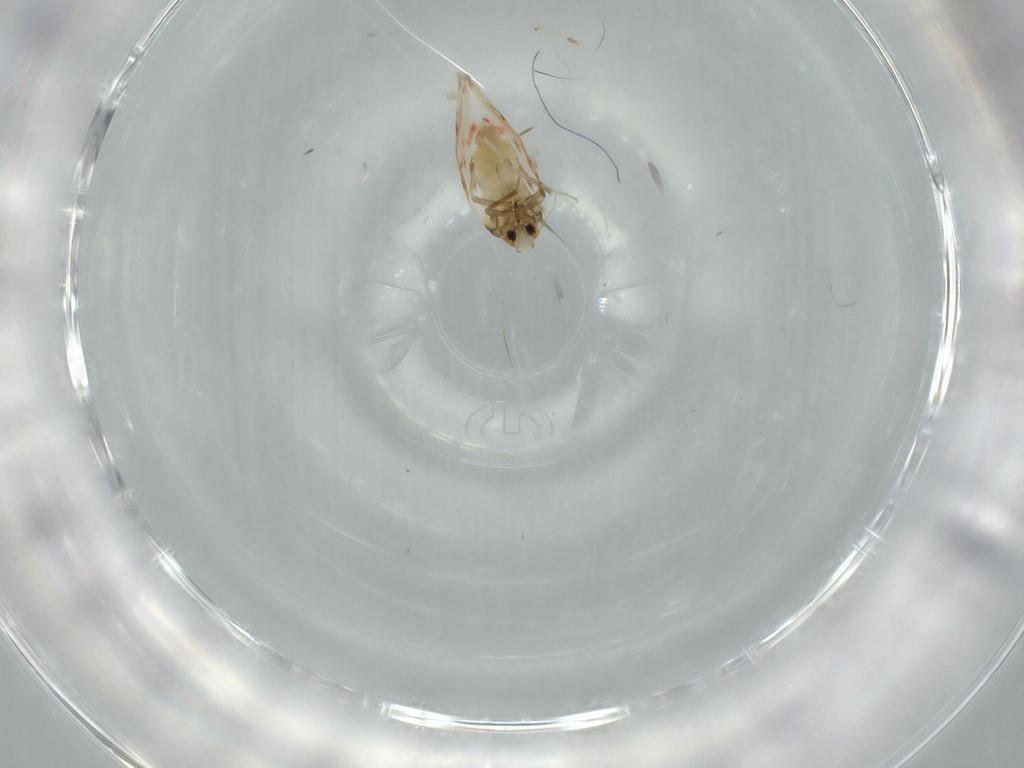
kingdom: Animalia
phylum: Arthropoda
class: Insecta
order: Hemiptera
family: Aleyrodidae
